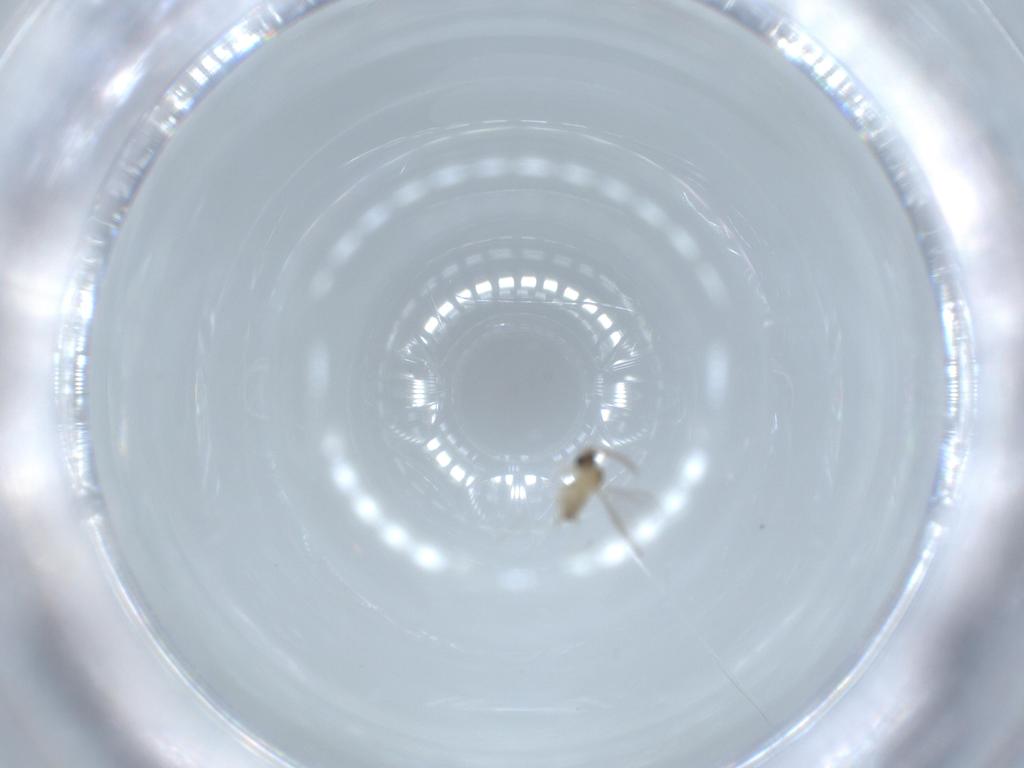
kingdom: Animalia
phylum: Arthropoda
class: Insecta
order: Diptera
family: Cecidomyiidae
